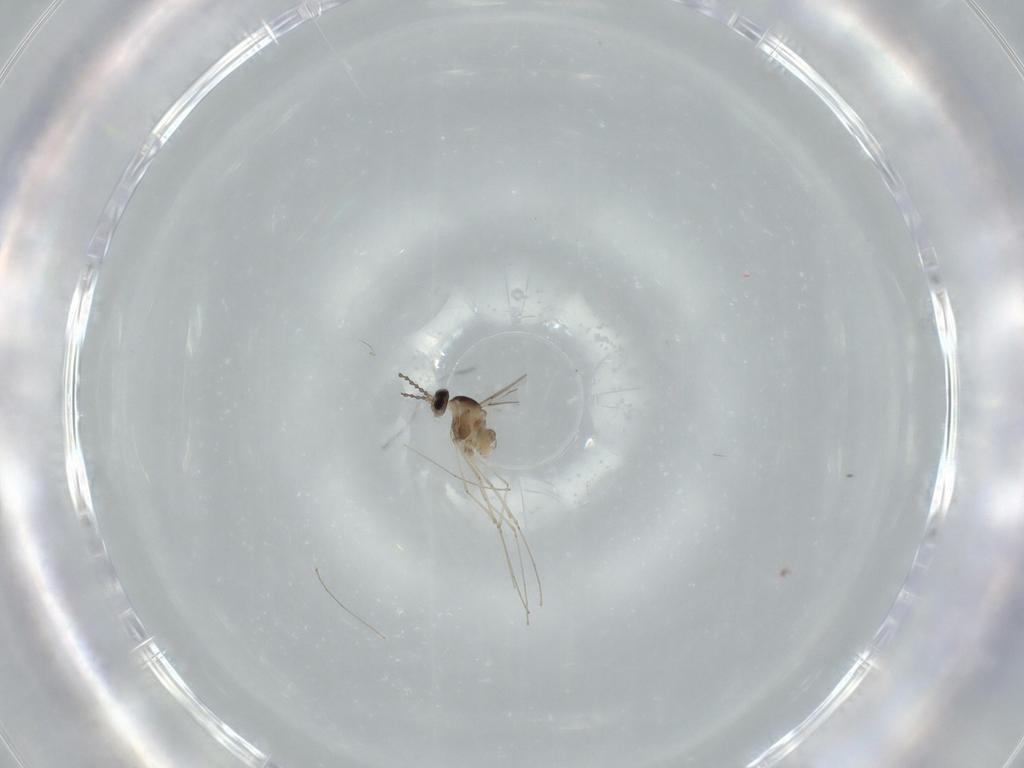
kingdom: Animalia
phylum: Arthropoda
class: Insecta
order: Diptera
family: Cecidomyiidae
